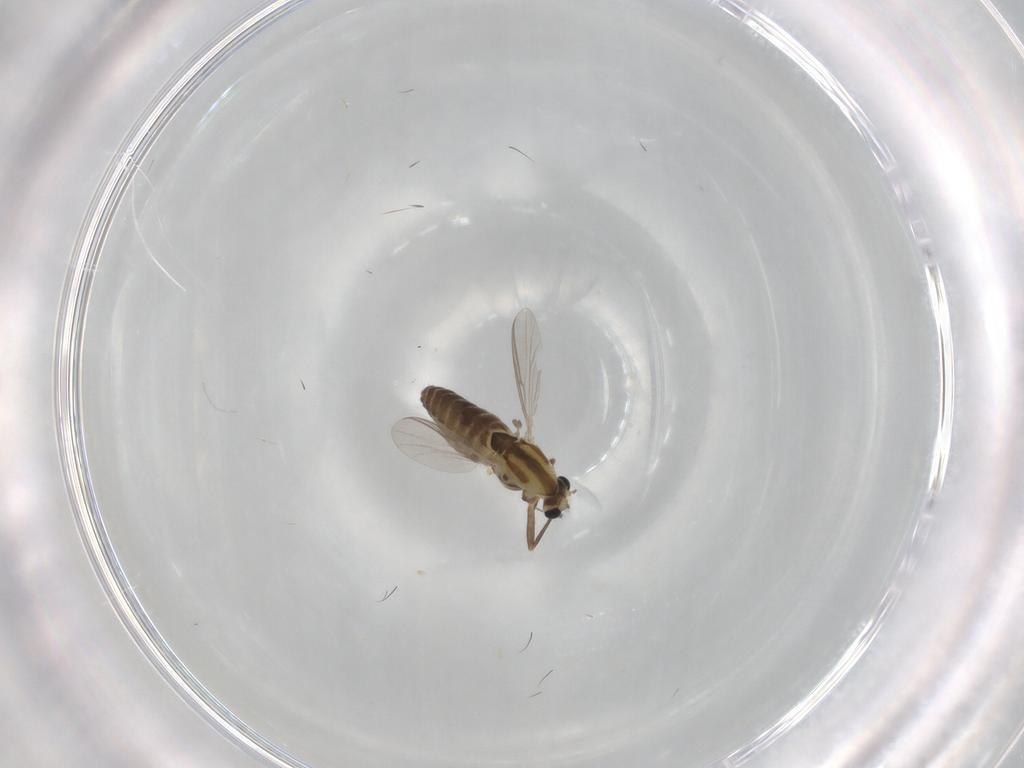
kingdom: Animalia
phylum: Arthropoda
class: Insecta
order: Diptera
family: Chironomidae
